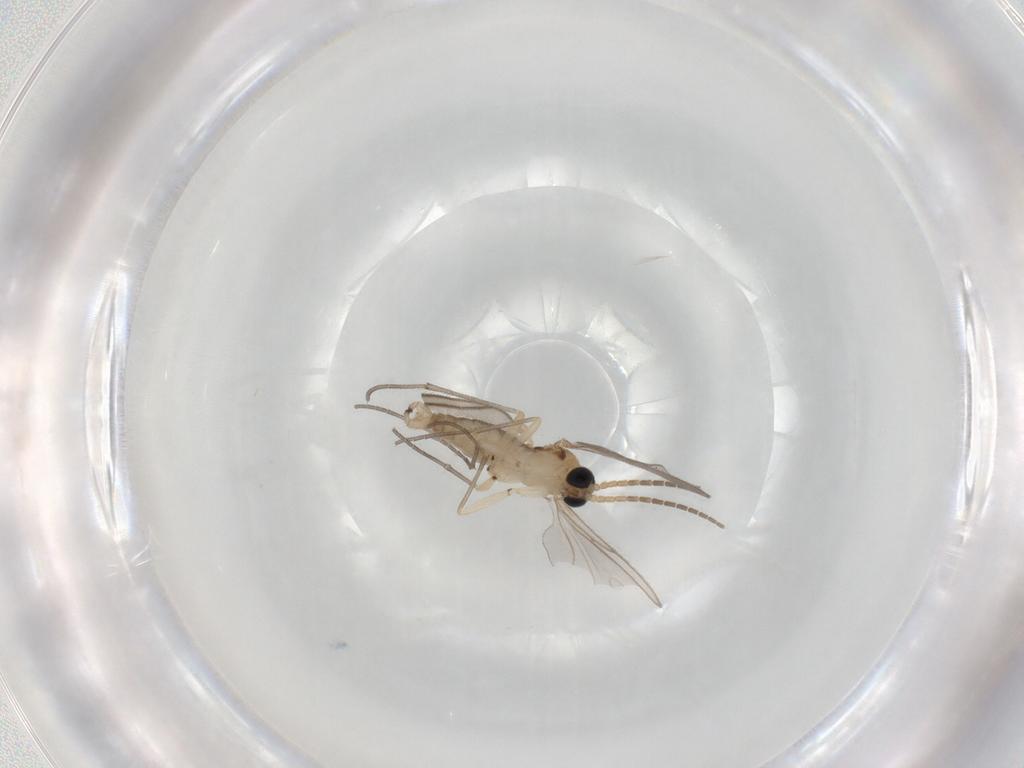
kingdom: Animalia
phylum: Arthropoda
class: Insecta
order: Diptera
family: Sciaridae
